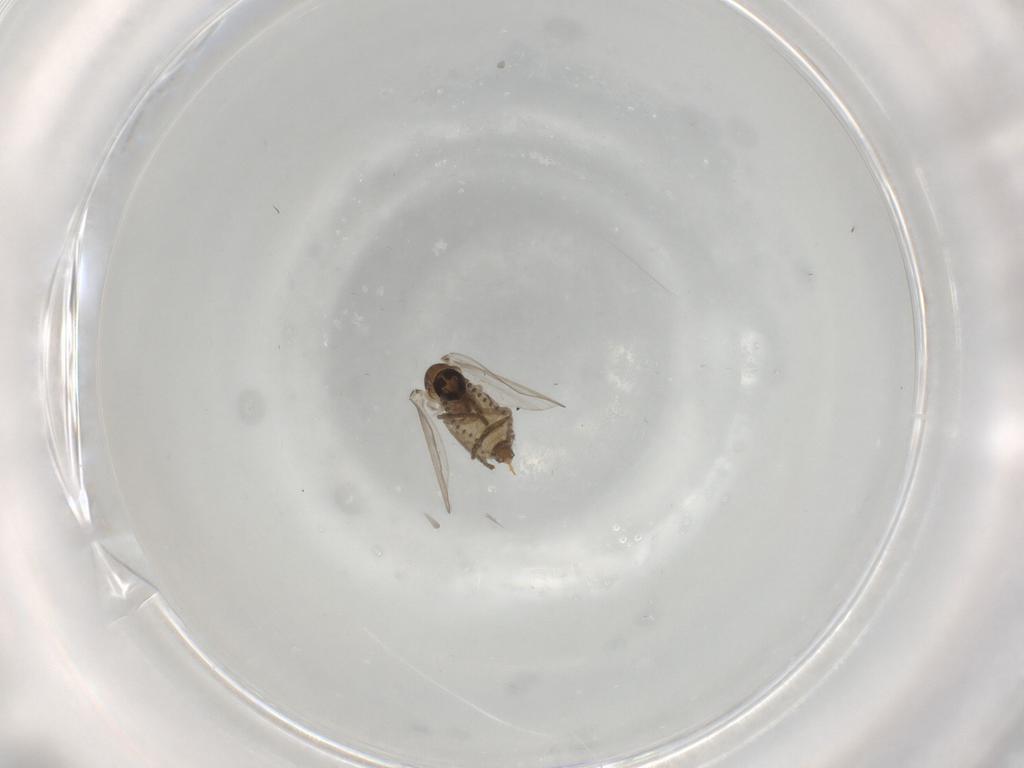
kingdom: Animalia
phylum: Arthropoda
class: Insecta
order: Diptera
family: Psychodidae
